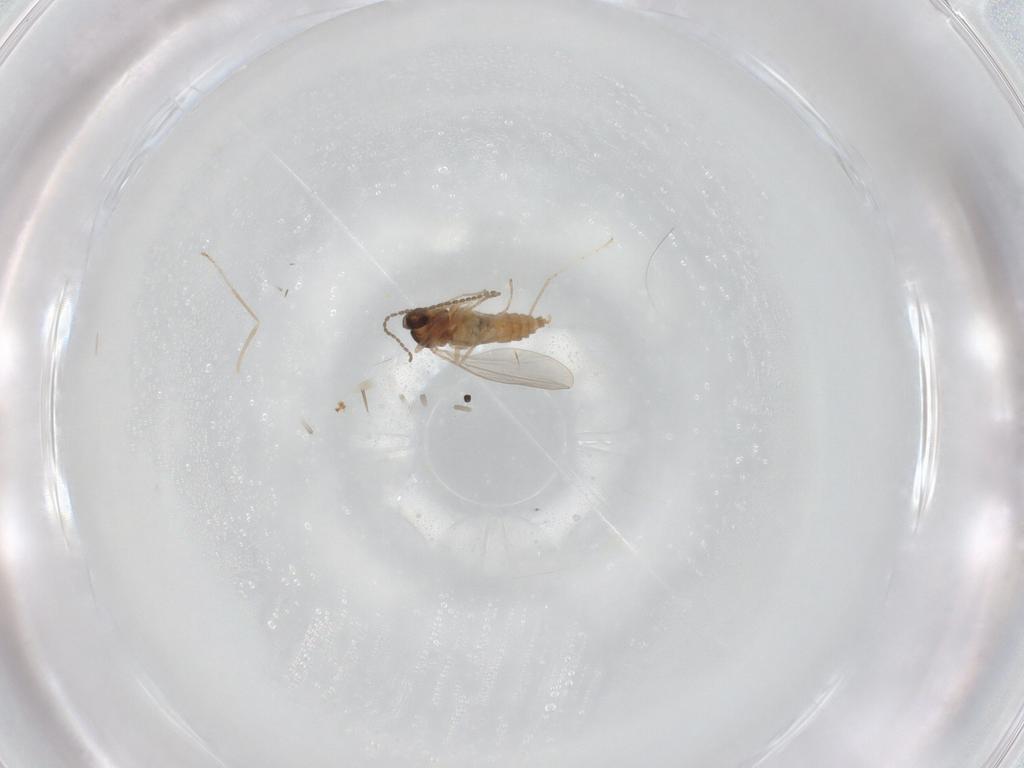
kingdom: Animalia
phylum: Arthropoda
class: Insecta
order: Diptera
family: Cecidomyiidae
